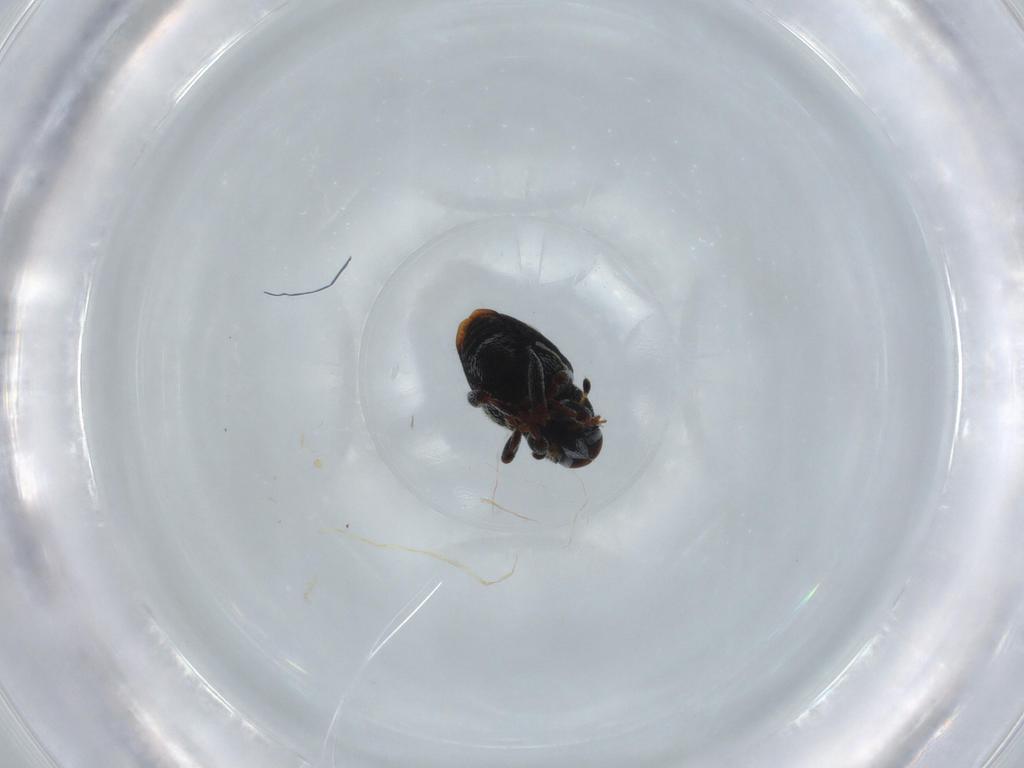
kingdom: Animalia
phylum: Arthropoda
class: Insecta
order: Coleoptera
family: Curculionidae
